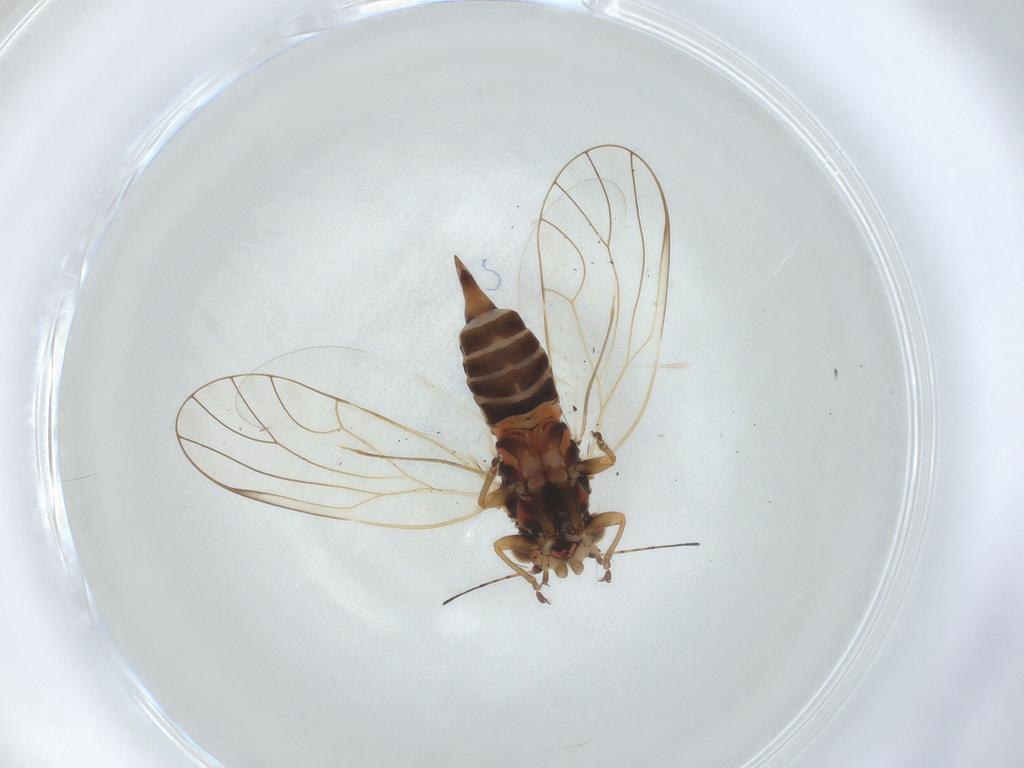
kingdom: Animalia
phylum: Arthropoda
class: Insecta
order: Hemiptera
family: Psyllidae
